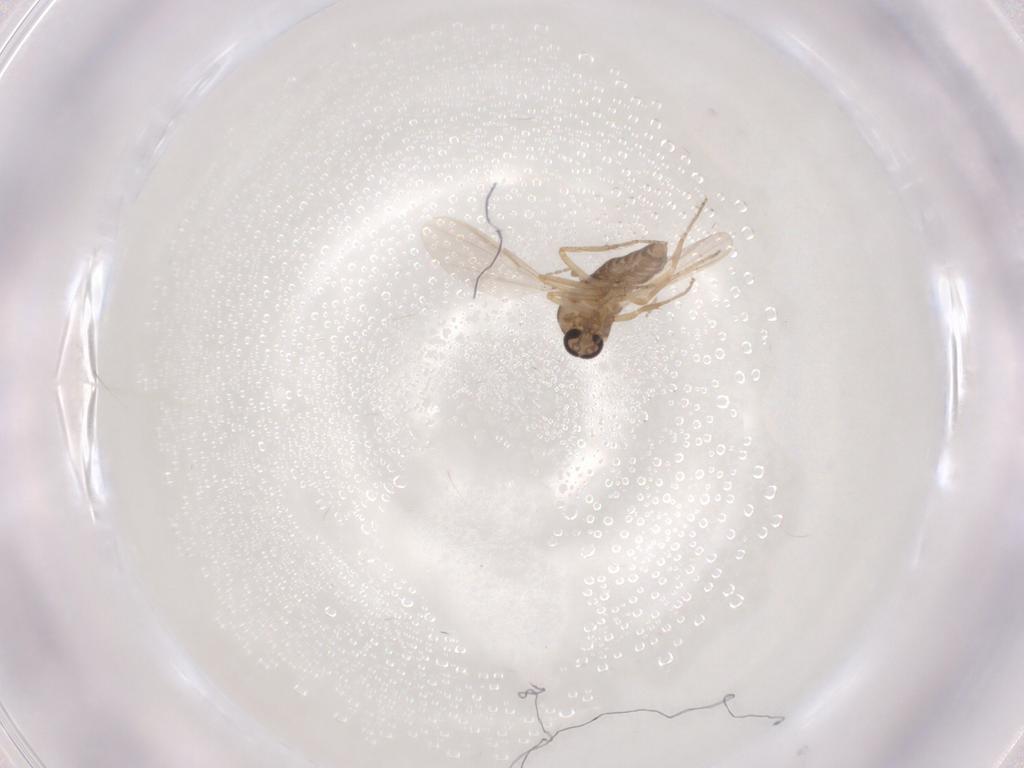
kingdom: Animalia
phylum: Arthropoda
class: Insecta
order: Diptera
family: Ceratopogonidae
